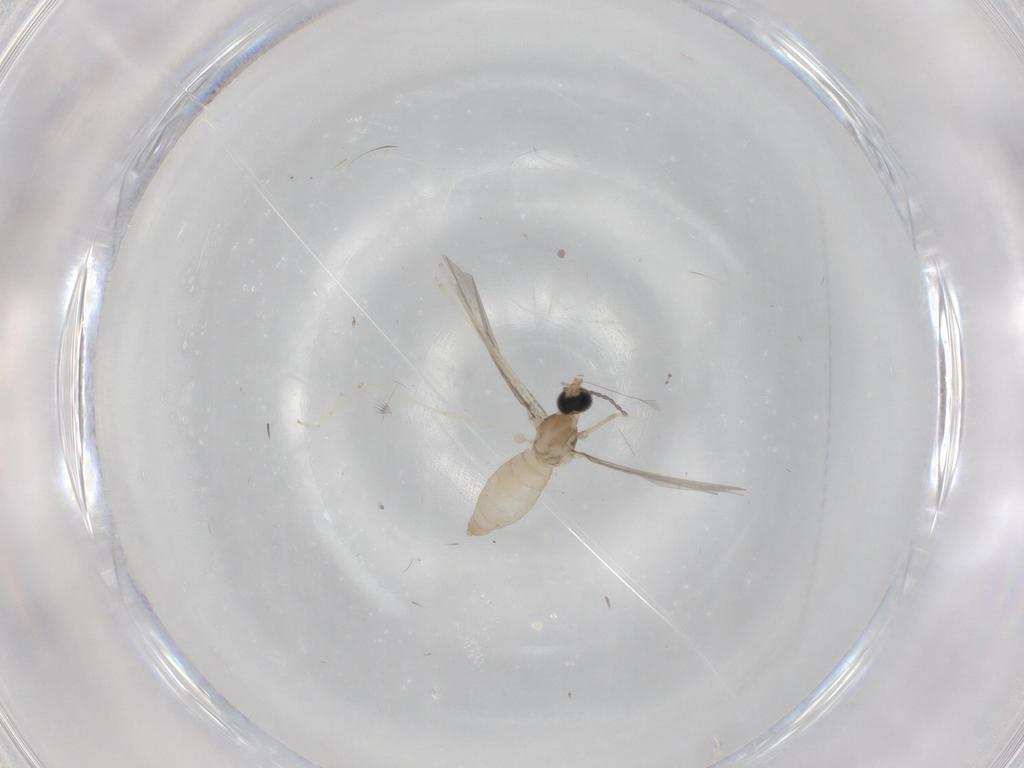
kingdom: Animalia
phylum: Arthropoda
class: Insecta
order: Diptera
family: Cecidomyiidae
